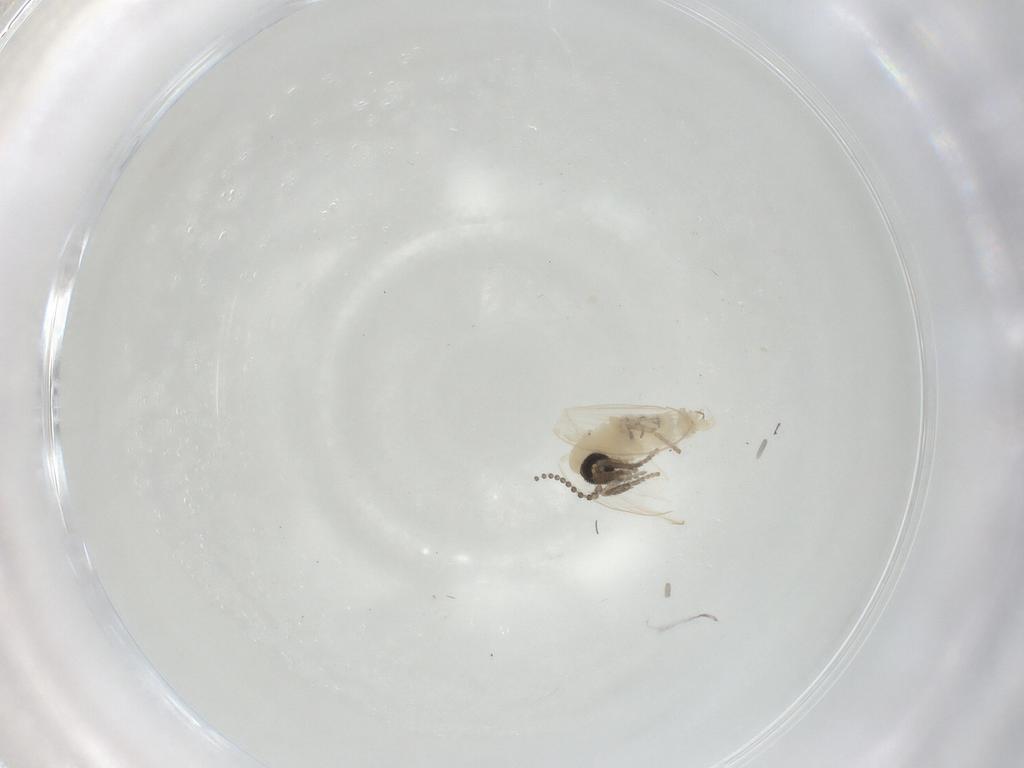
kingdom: Animalia
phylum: Arthropoda
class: Insecta
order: Diptera
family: Psychodidae
